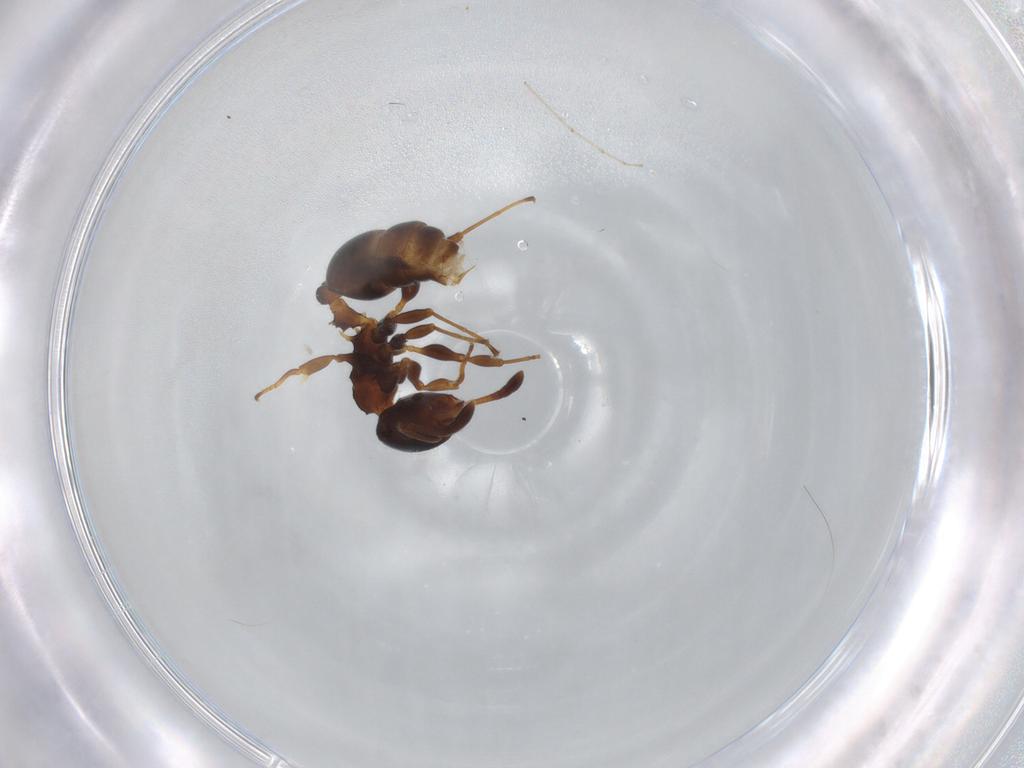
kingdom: Animalia
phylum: Arthropoda
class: Insecta
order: Hymenoptera
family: Formicidae
